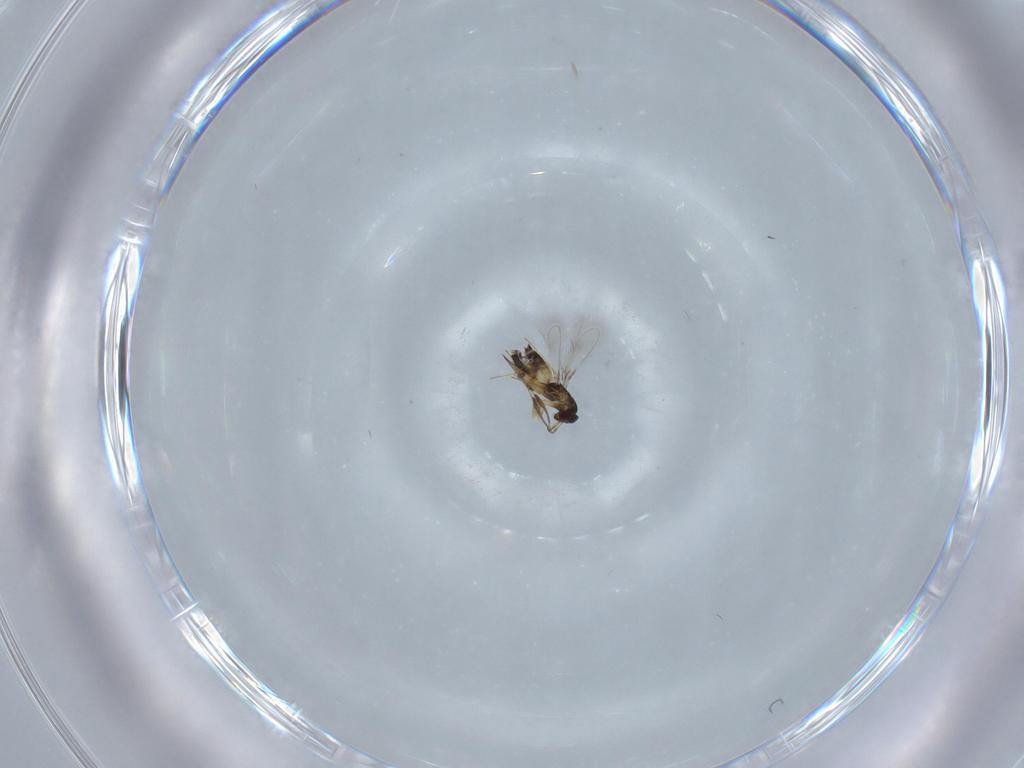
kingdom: Animalia
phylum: Arthropoda
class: Insecta
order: Hymenoptera
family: Mymaridae
